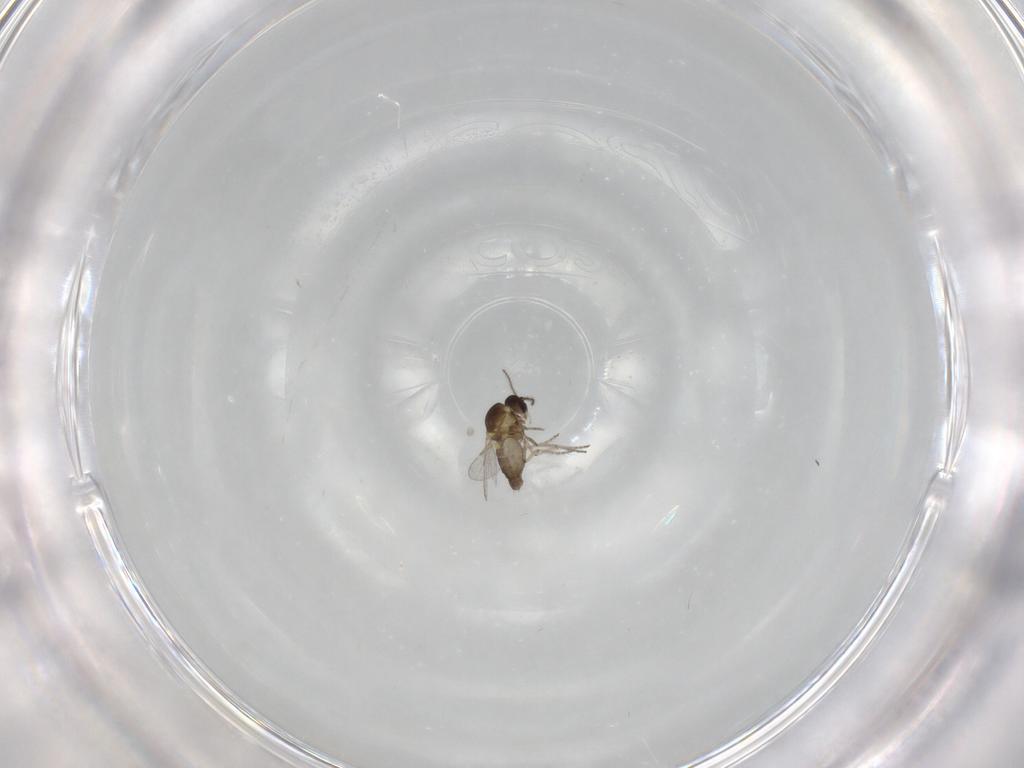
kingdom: Animalia
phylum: Arthropoda
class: Insecta
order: Diptera
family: Ceratopogonidae
